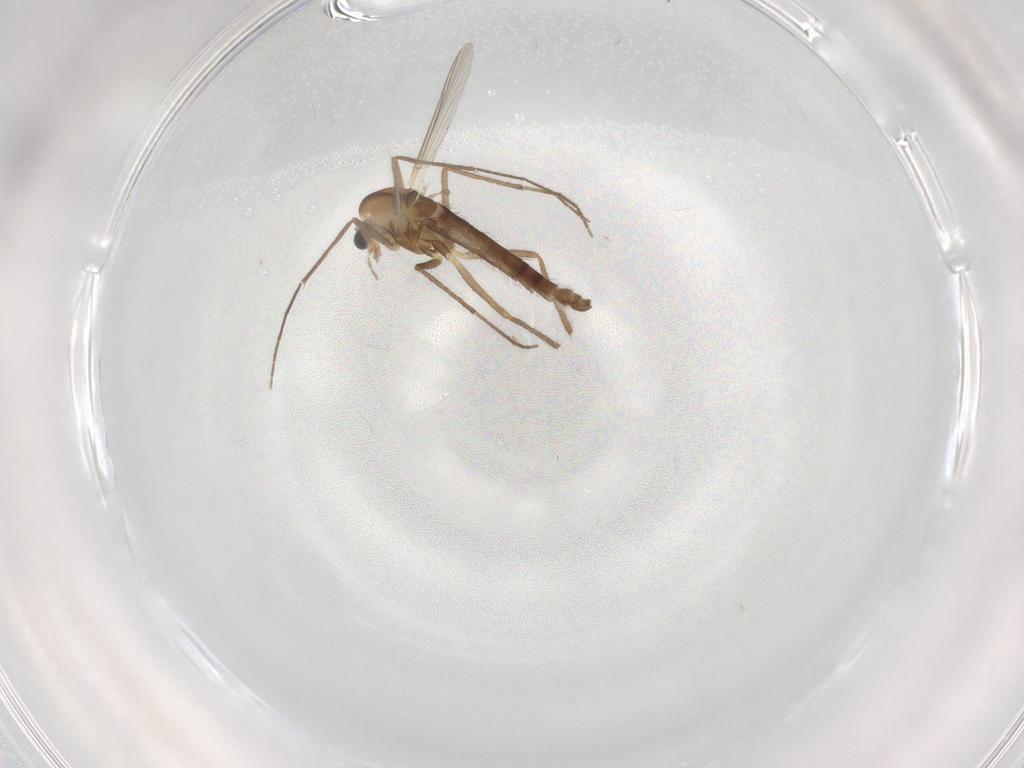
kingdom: Animalia
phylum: Arthropoda
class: Insecta
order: Diptera
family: Chironomidae
